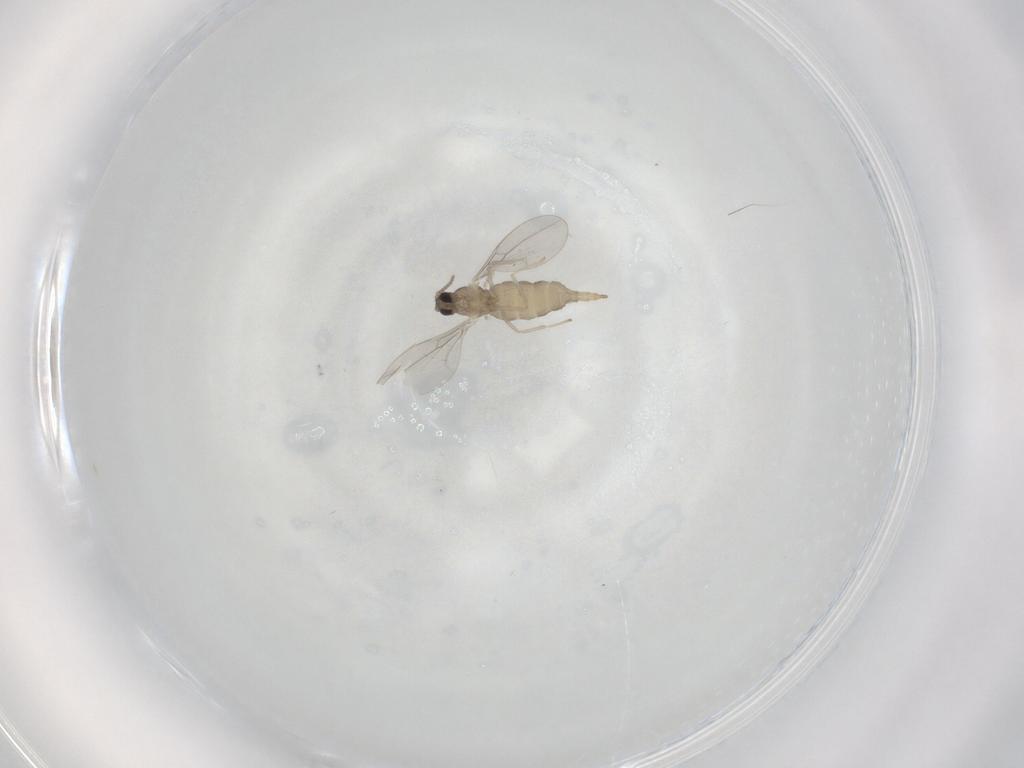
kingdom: Animalia
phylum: Arthropoda
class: Insecta
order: Diptera
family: Cecidomyiidae
